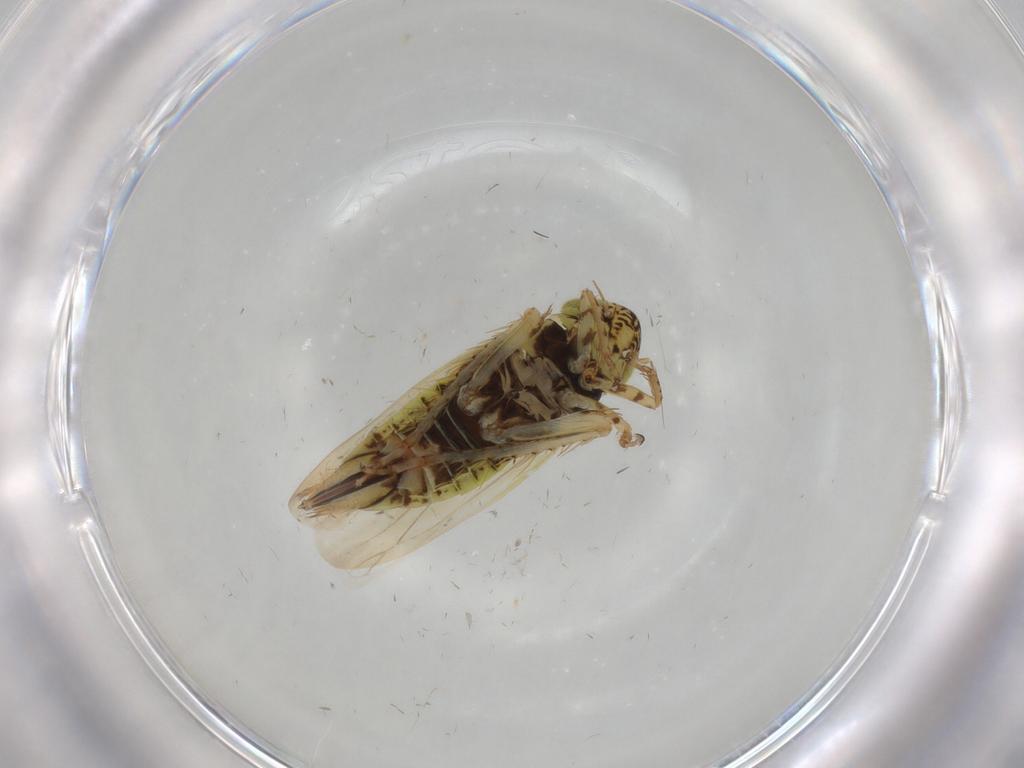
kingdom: Animalia
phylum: Arthropoda
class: Insecta
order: Hemiptera
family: Cicadellidae
